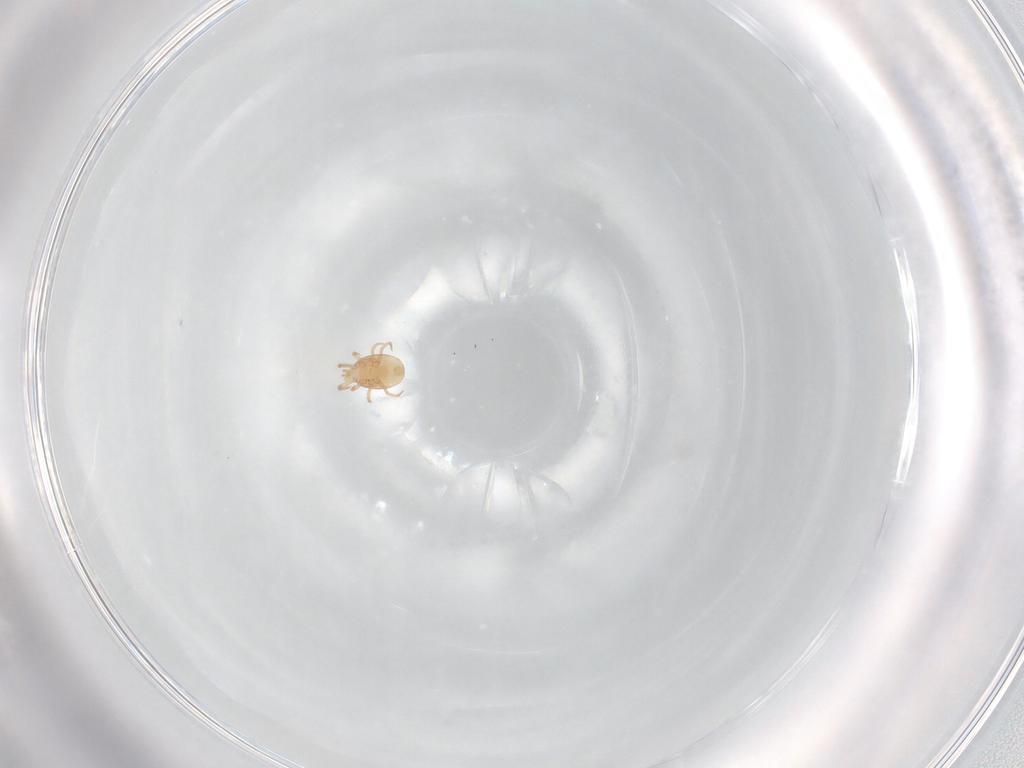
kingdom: Animalia
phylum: Arthropoda
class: Arachnida
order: Mesostigmata
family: Melicharidae
